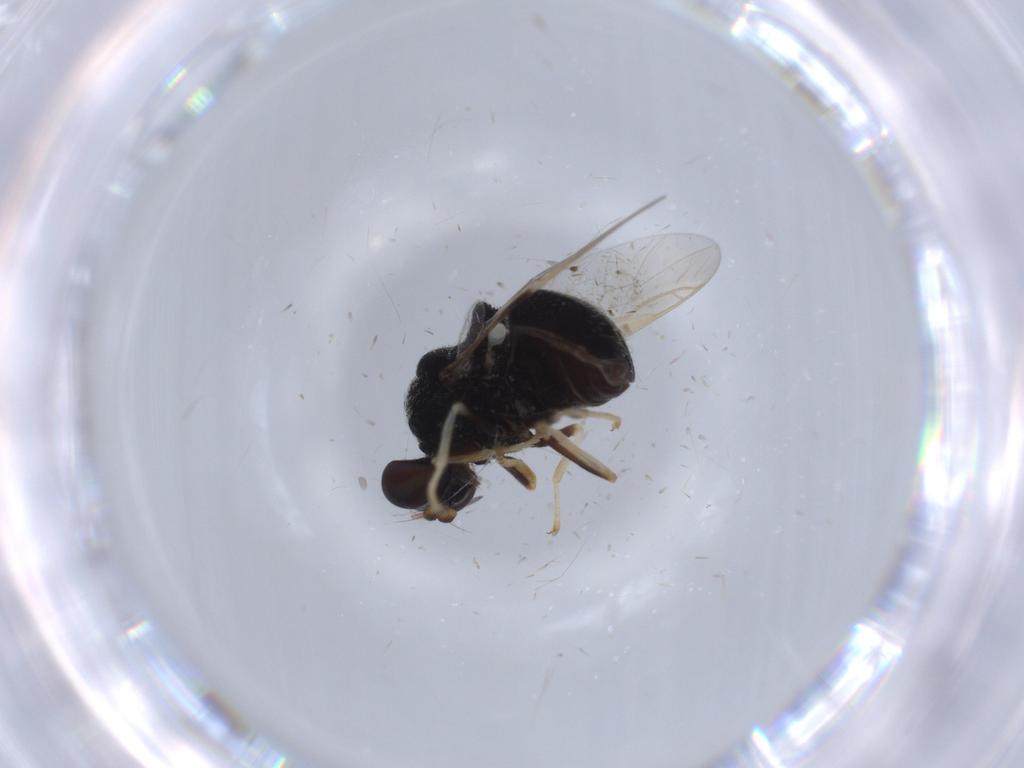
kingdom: Animalia
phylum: Arthropoda
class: Insecta
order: Diptera
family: Stratiomyidae
